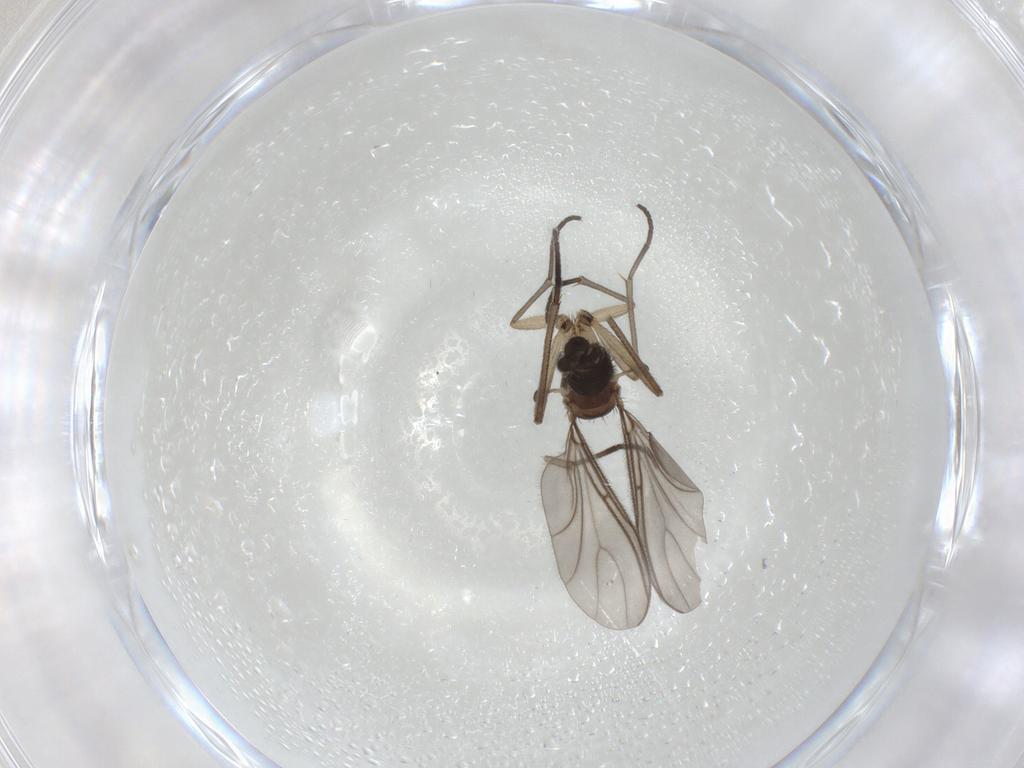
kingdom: Animalia
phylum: Arthropoda
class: Insecta
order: Diptera
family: Sciaridae
